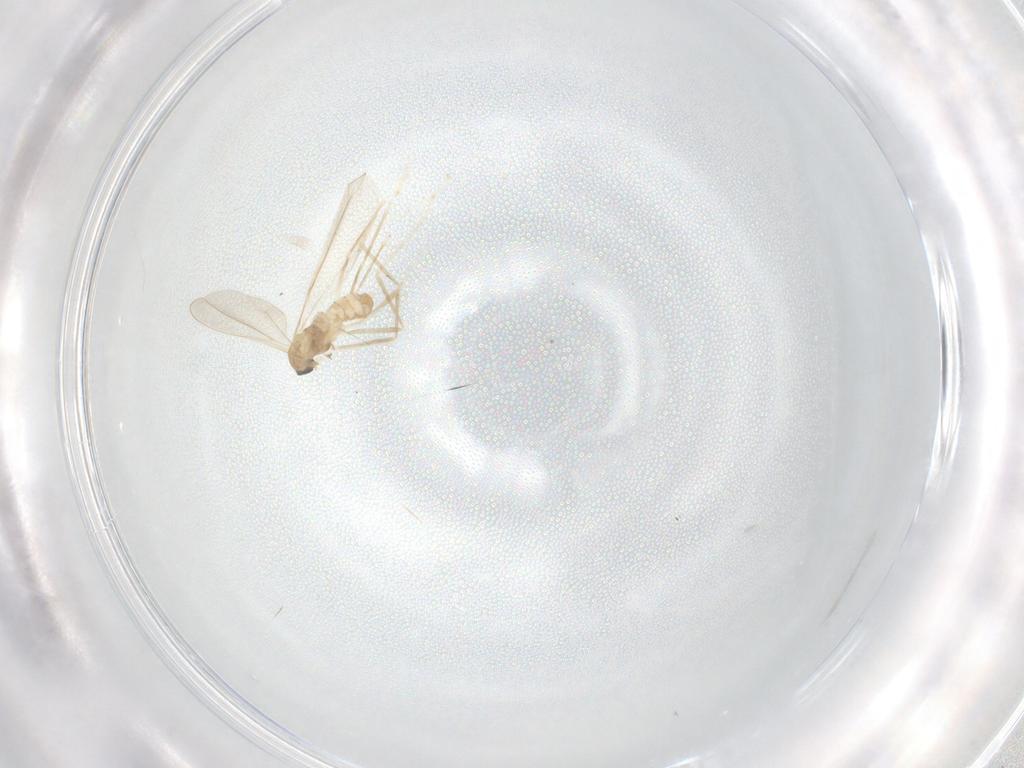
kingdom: Animalia
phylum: Arthropoda
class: Insecta
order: Diptera
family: Cecidomyiidae
